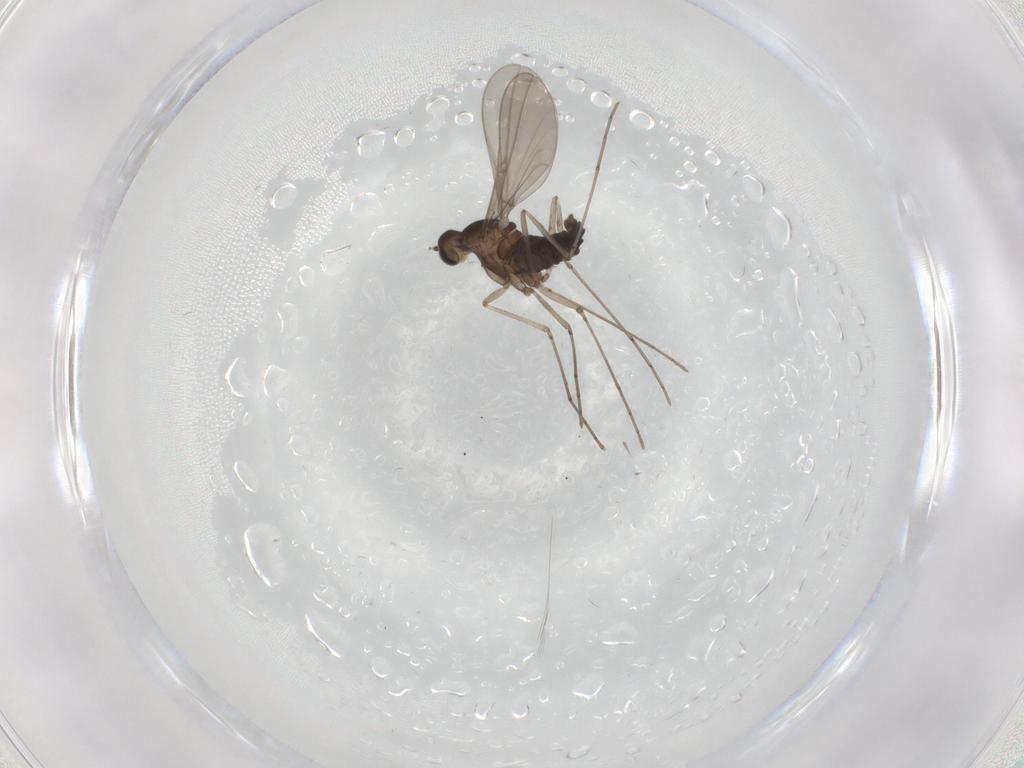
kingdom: Animalia
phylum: Arthropoda
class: Insecta
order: Diptera
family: Cecidomyiidae
